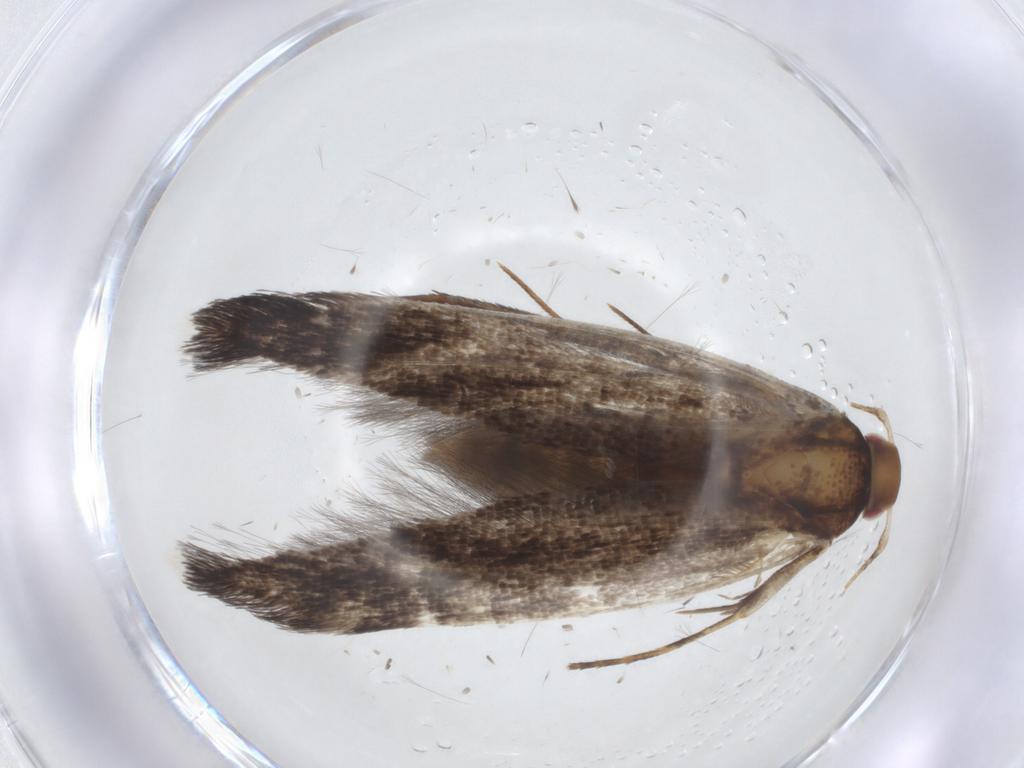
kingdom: Animalia
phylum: Arthropoda
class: Insecta
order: Lepidoptera
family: Cosmopterigidae
